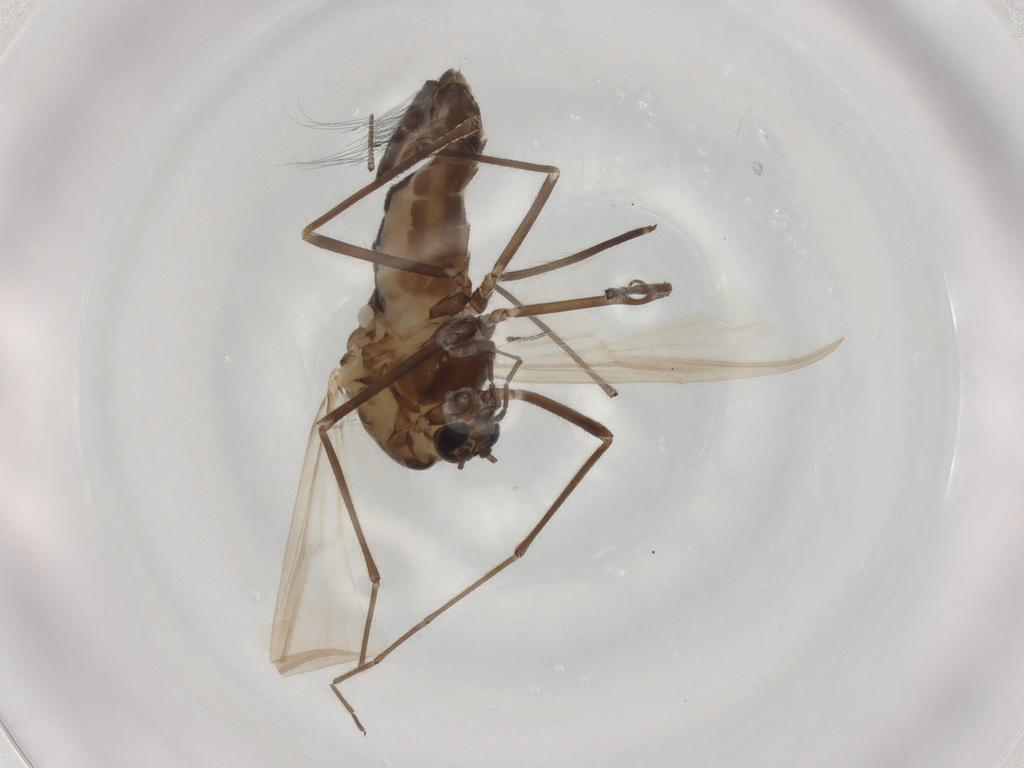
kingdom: Animalia
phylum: Arthropoda
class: Insecta
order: Diptera
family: Chironomidae
